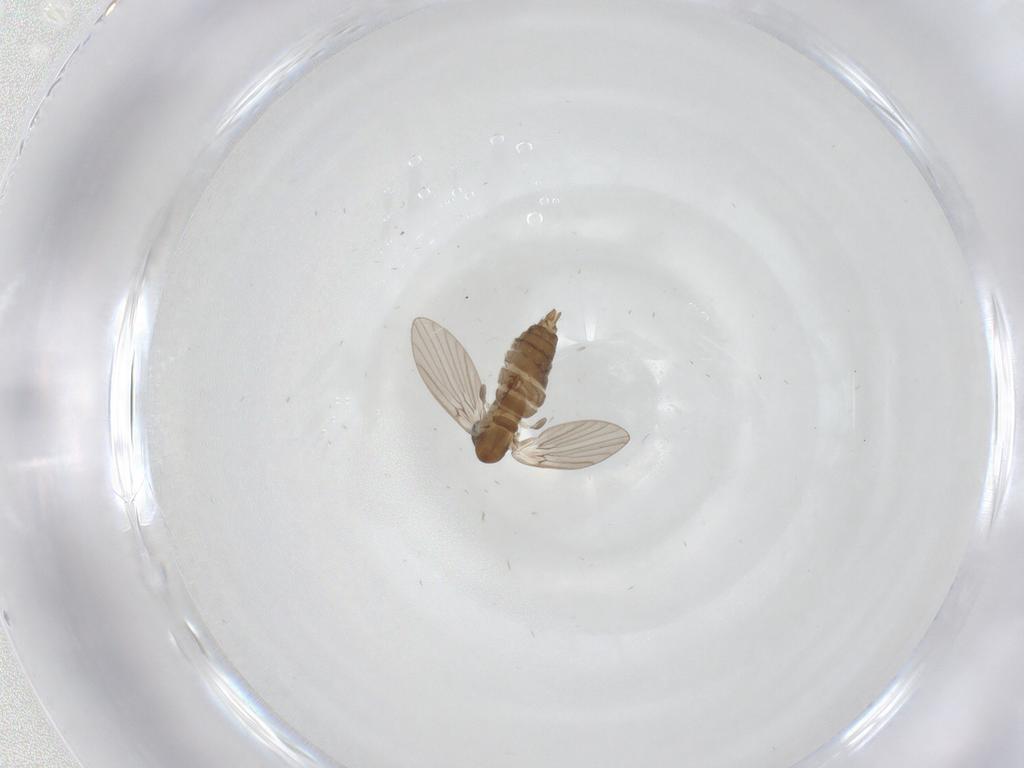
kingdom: Animalia
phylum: Arthropoda
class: Insecta
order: Diptera
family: Limoniidae
